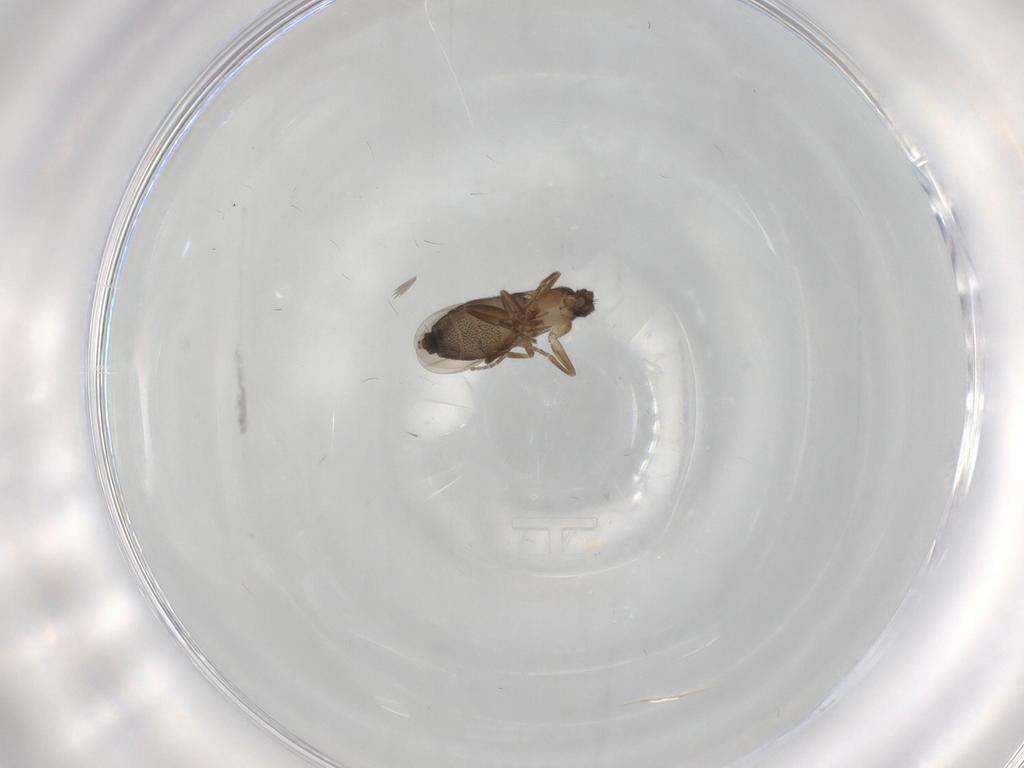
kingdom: Animalia
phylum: Arthropoda
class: Insecta
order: Diptera
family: Phoridae
